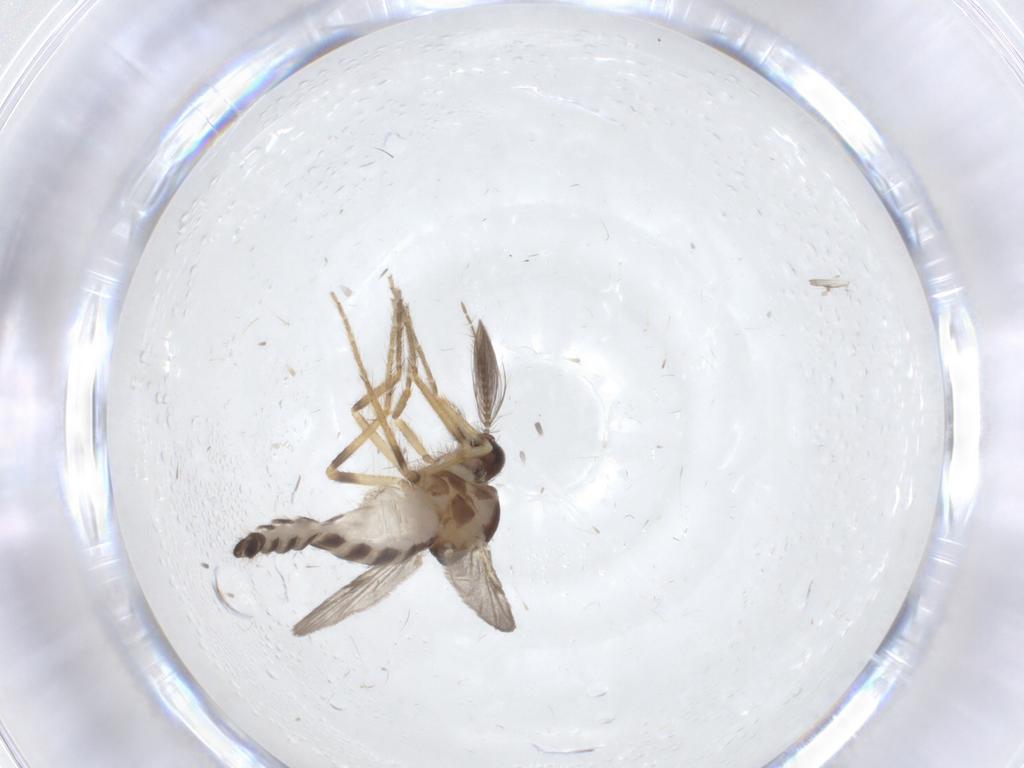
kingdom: Animalia
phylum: Arthropoda
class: Insecta
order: Diptera
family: Ceratopogonidae
